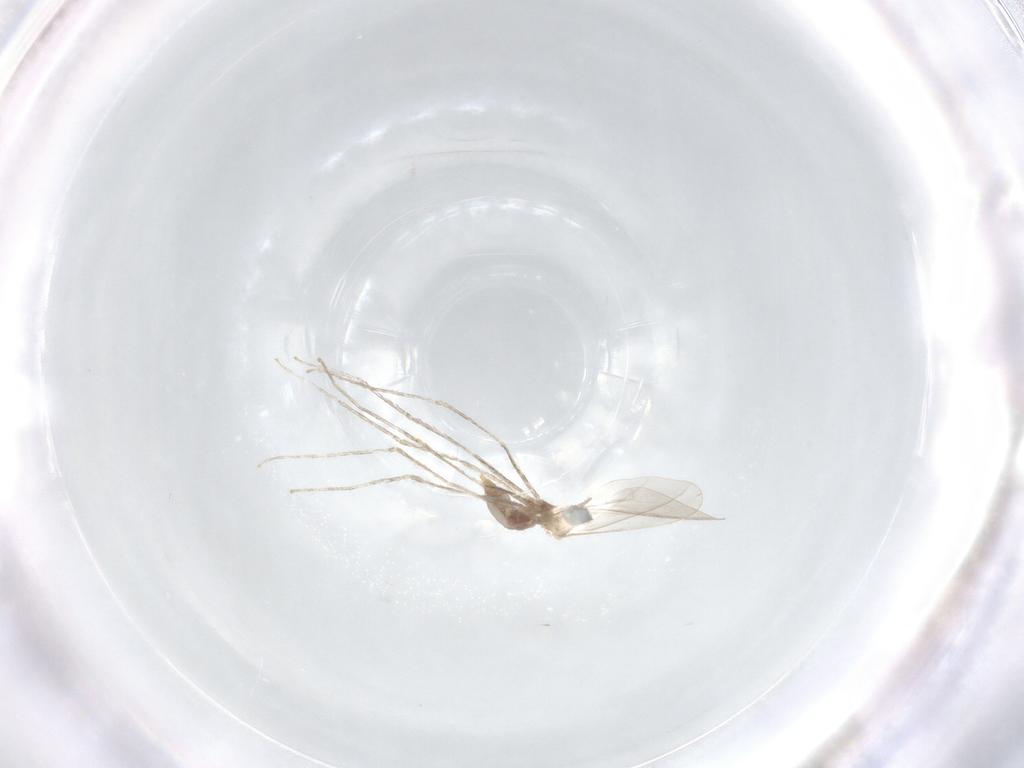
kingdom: Animalia
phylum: Arthropoda
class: Insecta
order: Diptera
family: Cecidomyiidae
